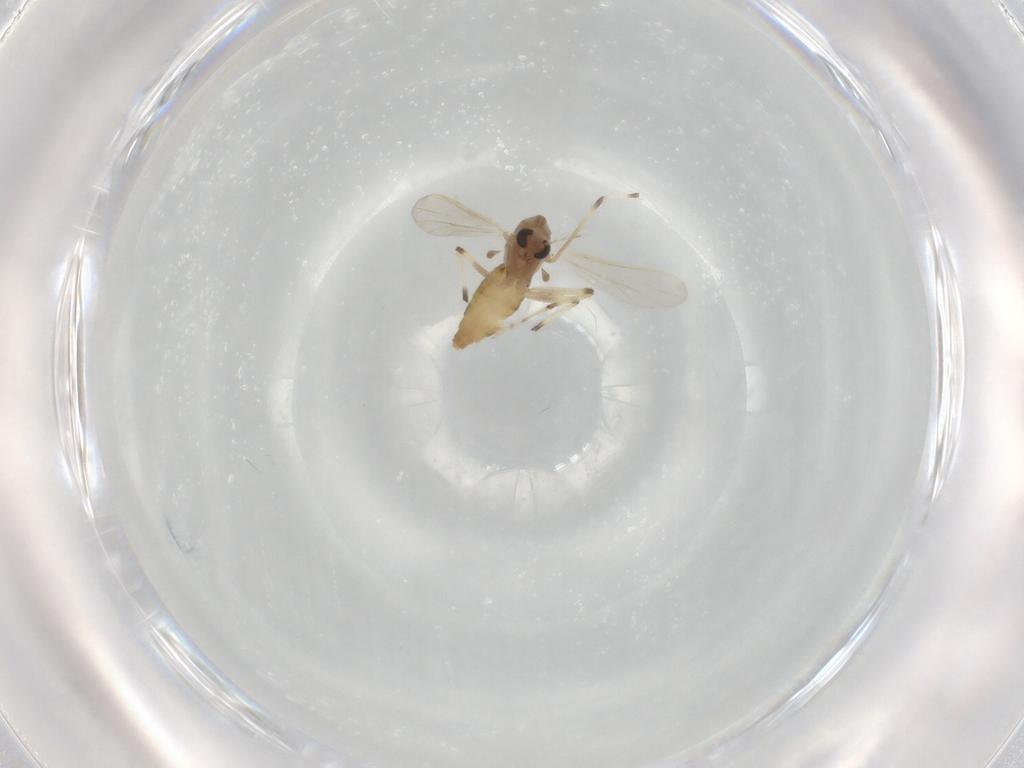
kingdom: Animalia
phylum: Arthropoda
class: Insecta
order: Diptera
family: Chironomidae
